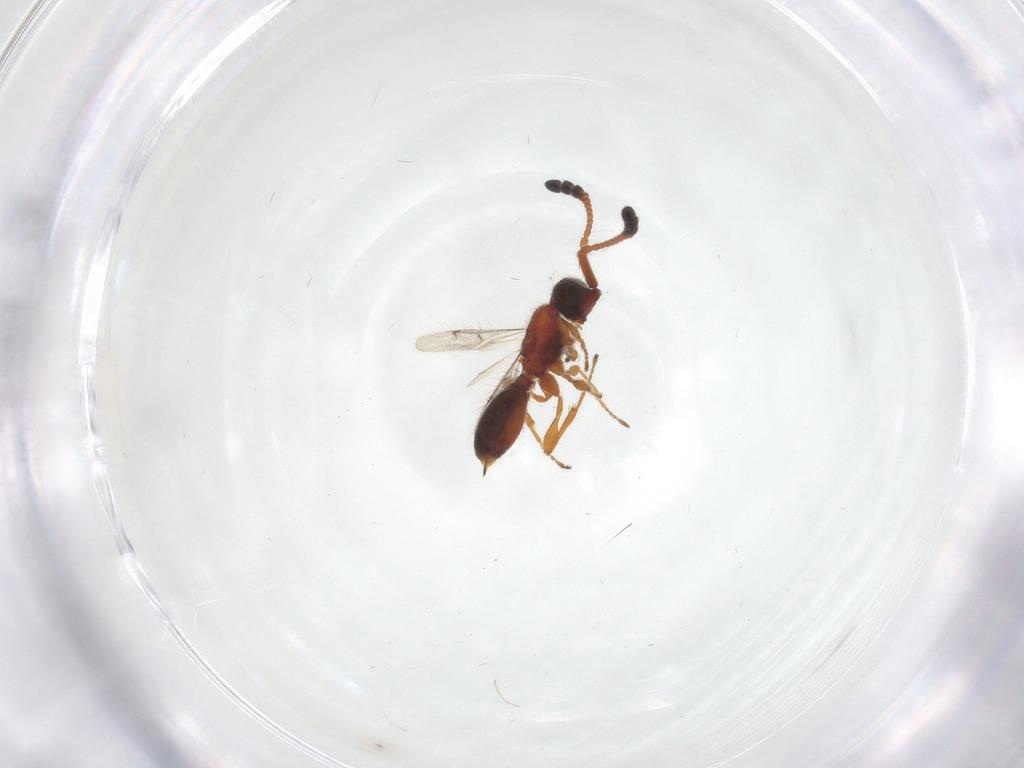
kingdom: Animalia
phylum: Arthropoda
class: Insecta
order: Hymenoptera
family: Diapriidae
